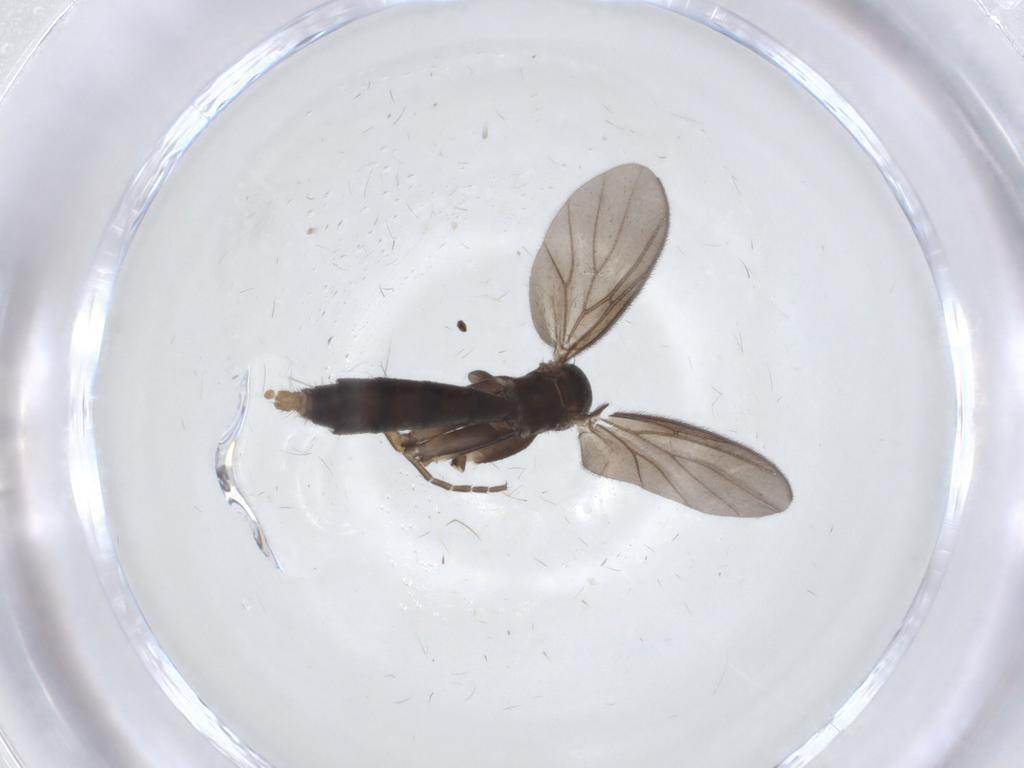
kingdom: Animalia
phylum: Arthropoda
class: Insecta
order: Diptera
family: Mycetophilidae
